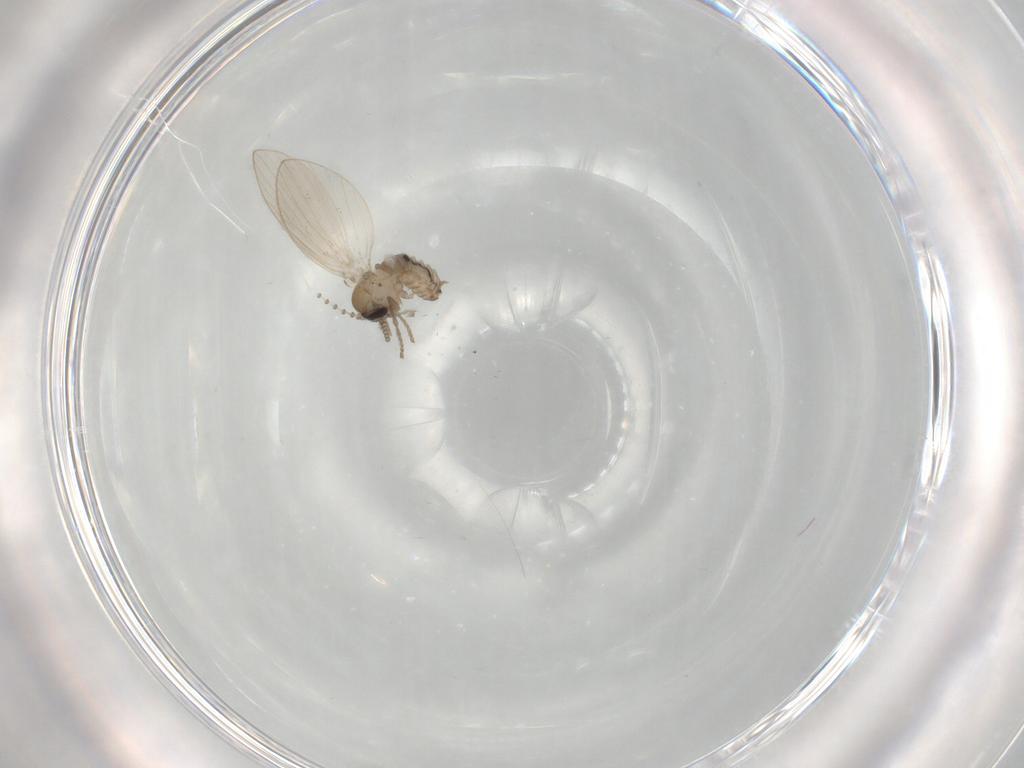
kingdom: Animalia
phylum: Arthropoda
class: Insecta
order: Diptera
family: Psychodidae
